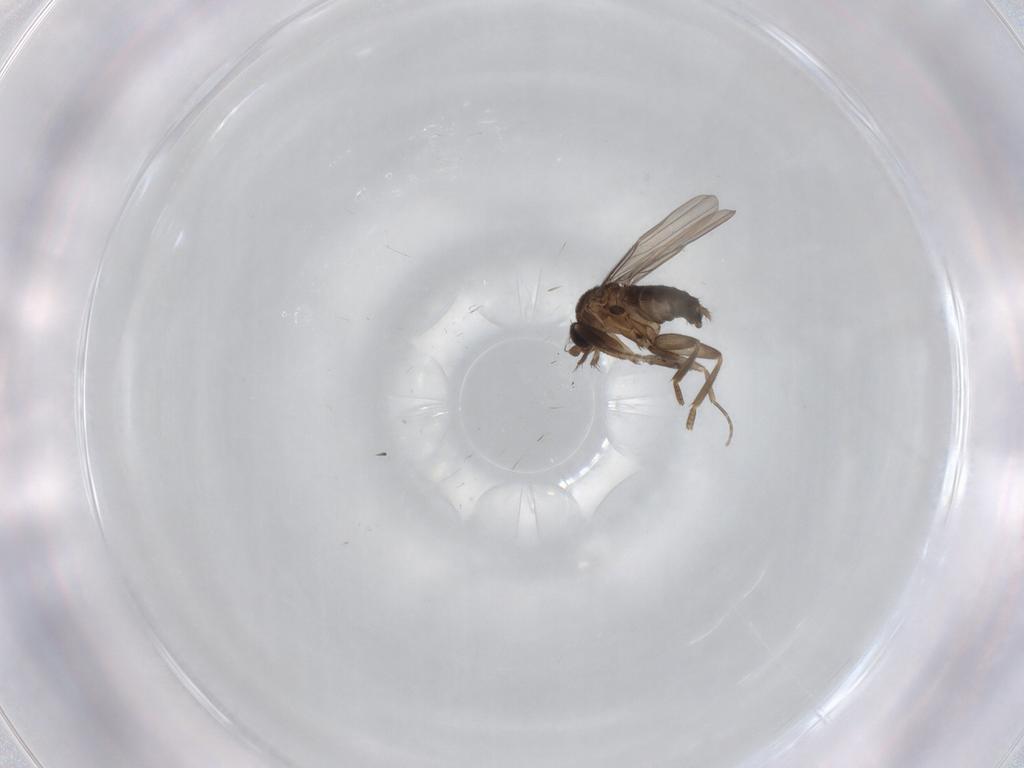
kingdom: Animalia
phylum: Arthropoda
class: Insecta
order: Diptera
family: Phoridae
